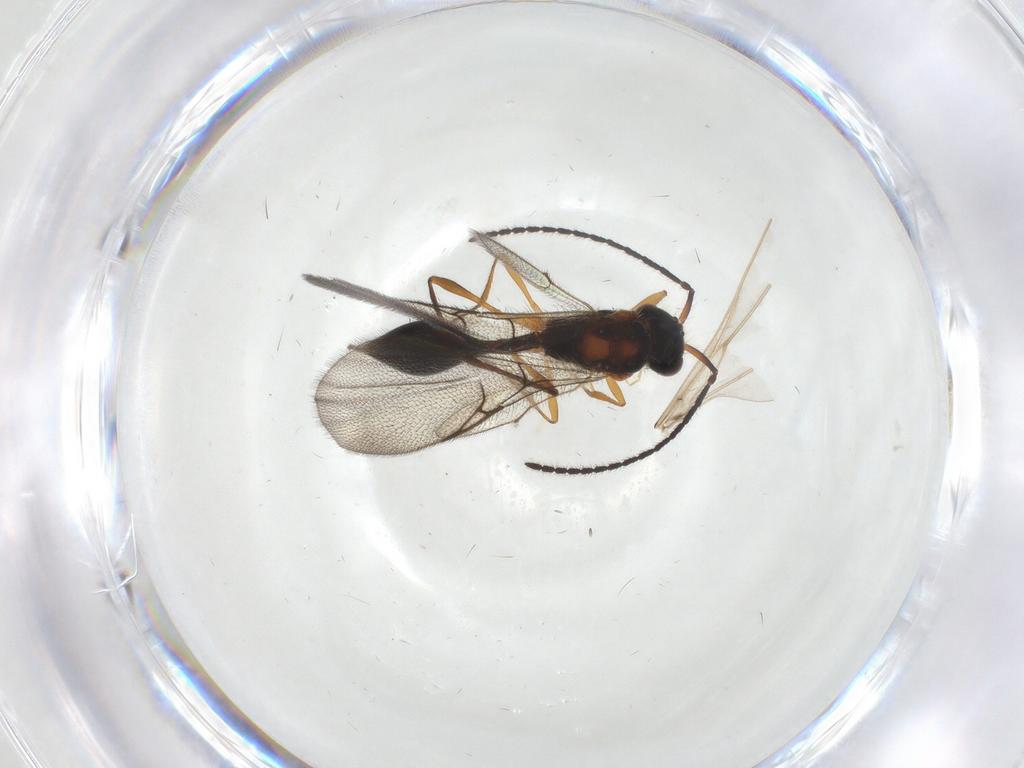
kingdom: Animalia
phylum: Arthropoda
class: Insecta
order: Hymenoptera
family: Diapriidae
